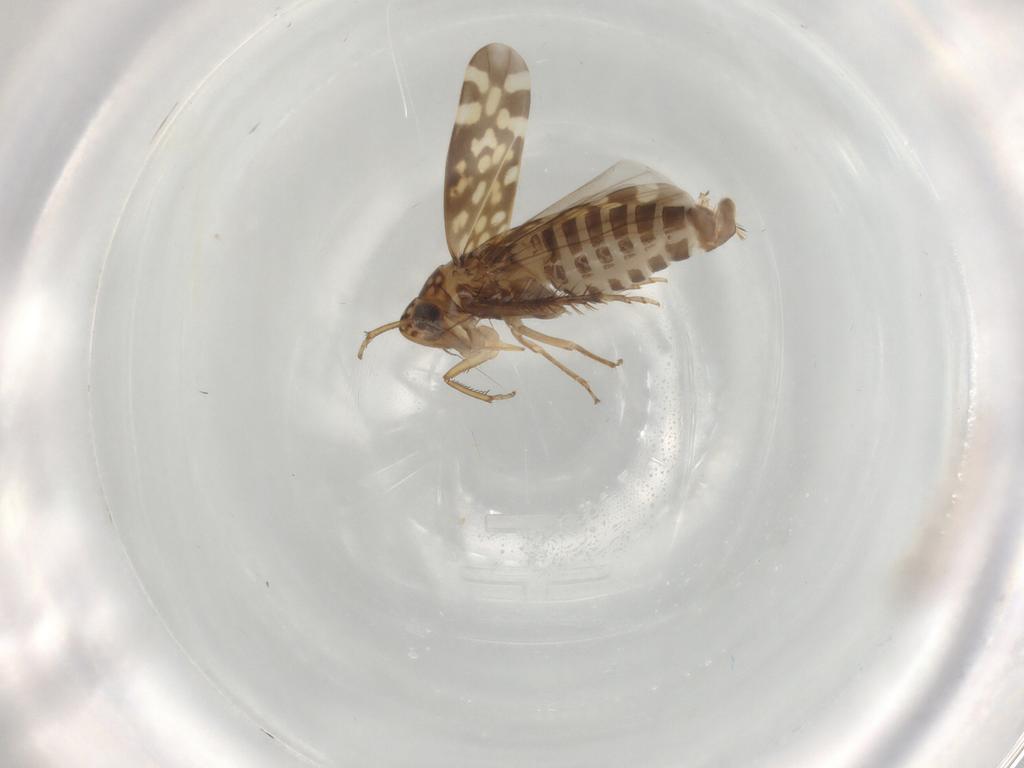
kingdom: Animalia
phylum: Arthropoda
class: Insecta
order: Hemiptera
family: Cicadellidae
